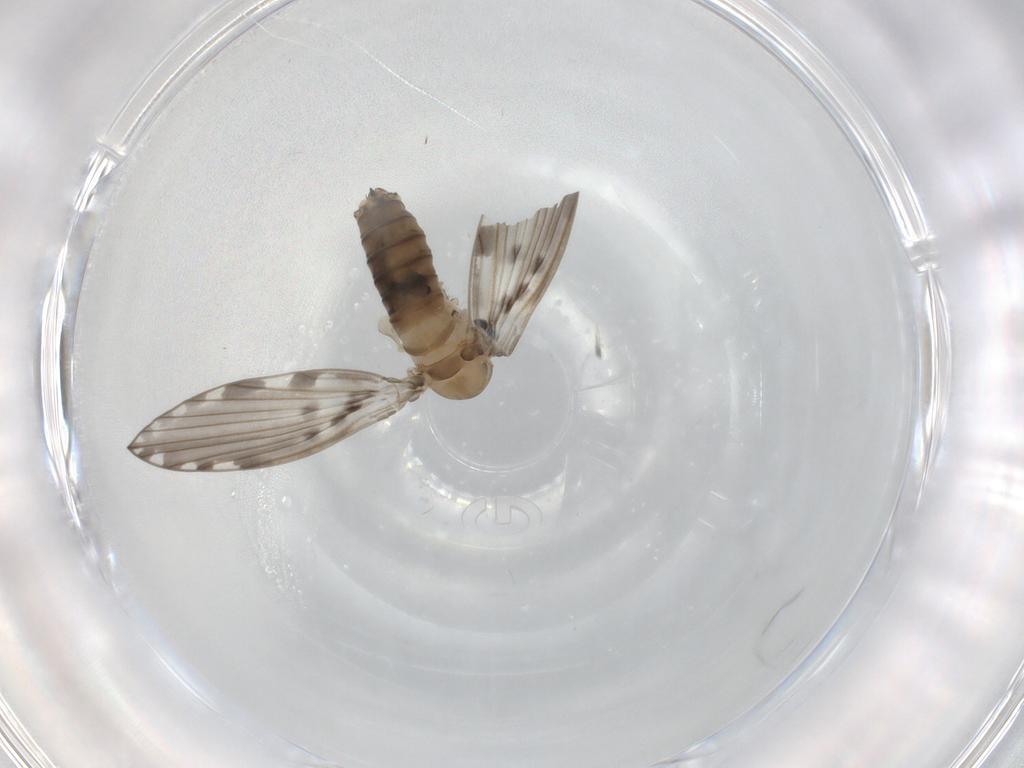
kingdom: Animalia
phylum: Arthropoda
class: Insecta
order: Diptera
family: Cecidomyiidae
